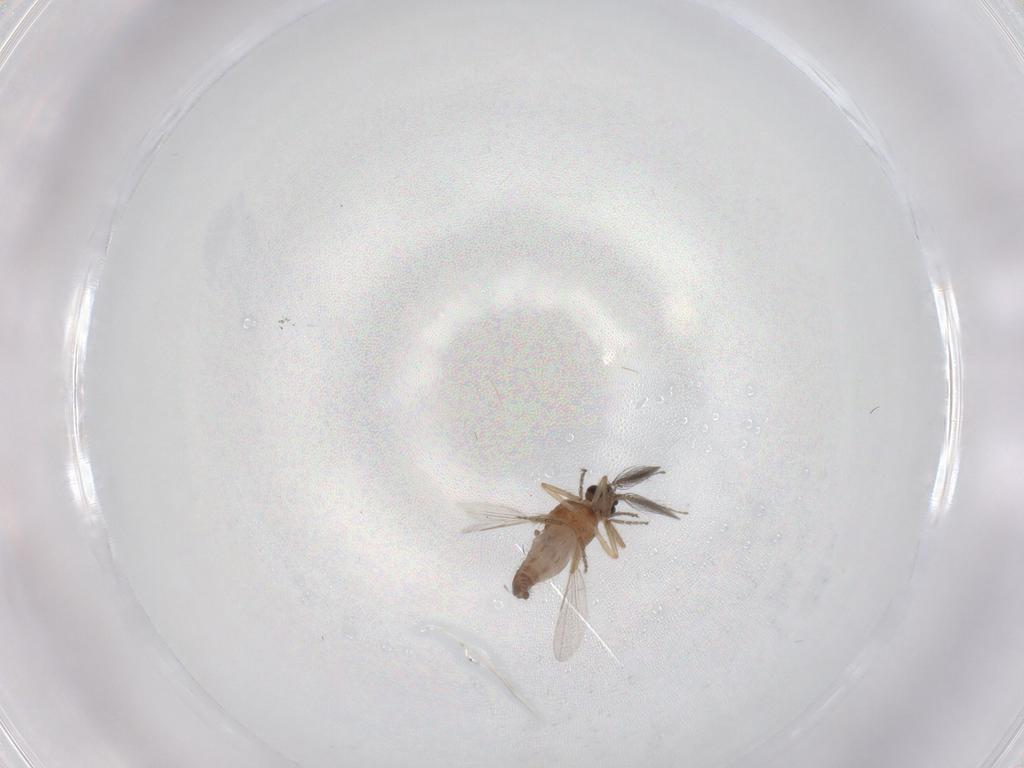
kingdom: Animalia
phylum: Arthropoda
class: Insecta
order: Diptera
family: Ceratopogonidae
